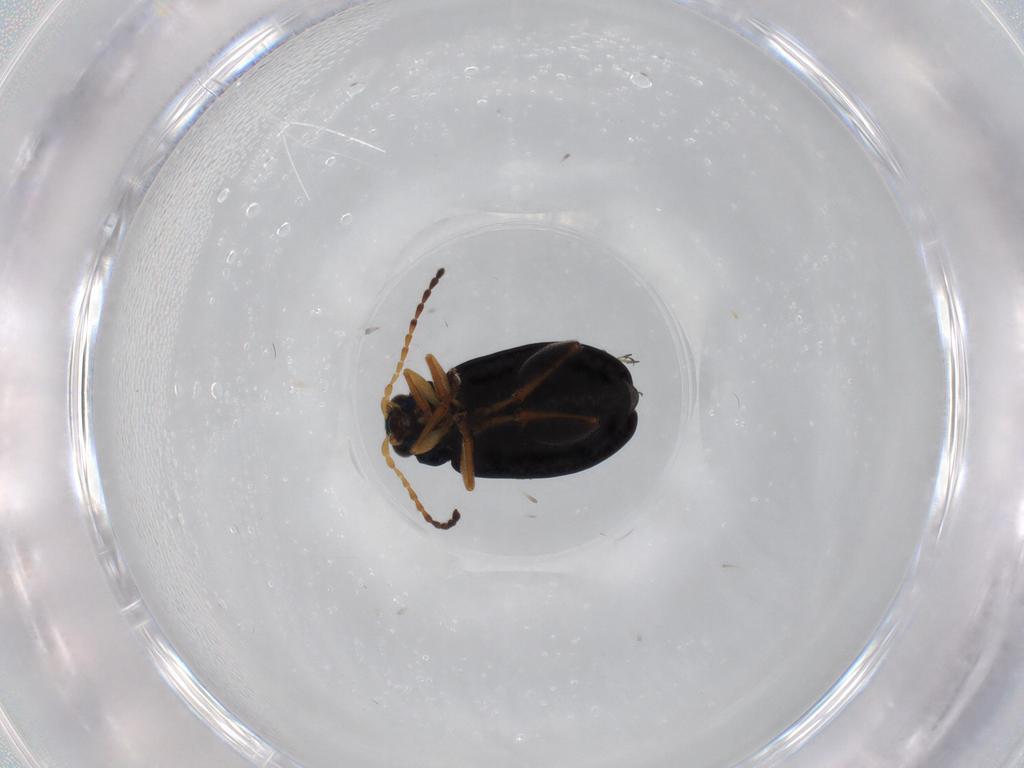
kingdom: Animalia
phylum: Arthropoda
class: Insecta
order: Coleoptera
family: Chrysomelidae
